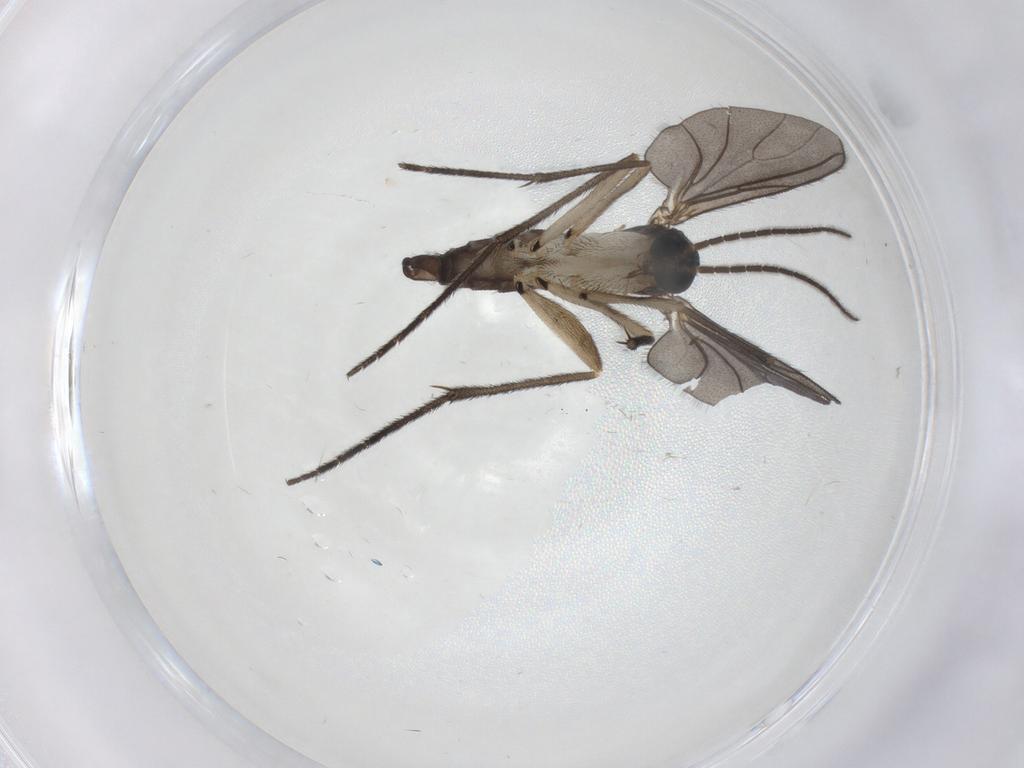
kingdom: Animalia
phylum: Arthropoda
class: Insecta
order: Diptera
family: Sciaridae
